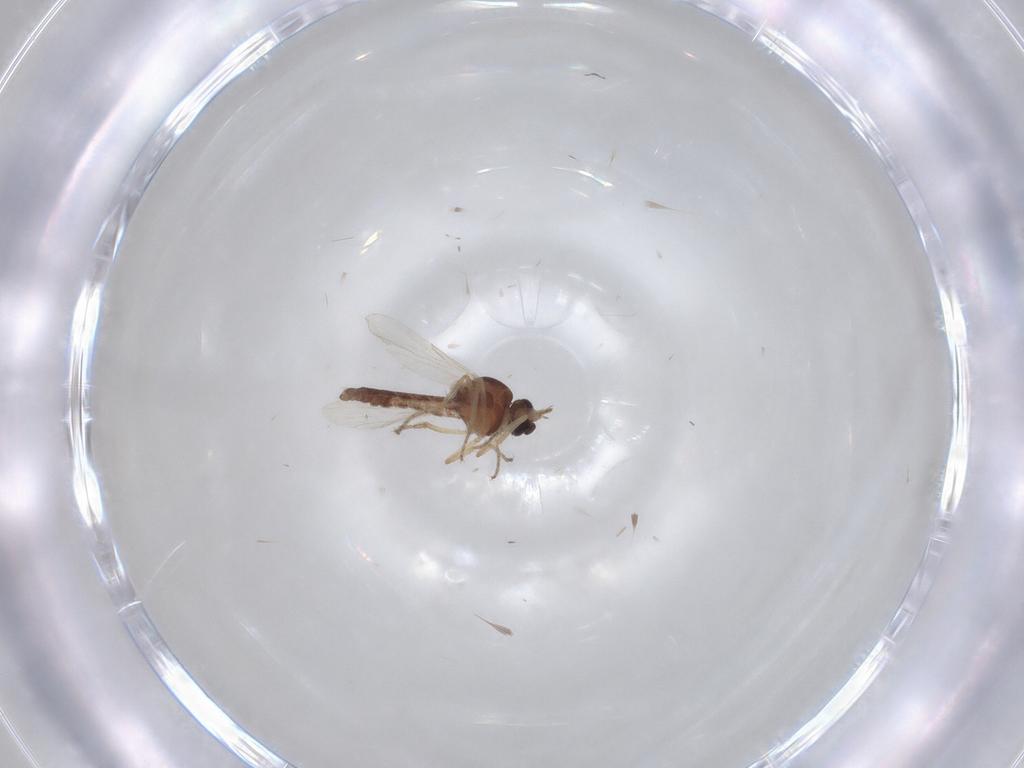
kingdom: Animalia
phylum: Arthropoda
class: Insecta
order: Diptera
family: Ceratopogonidae
